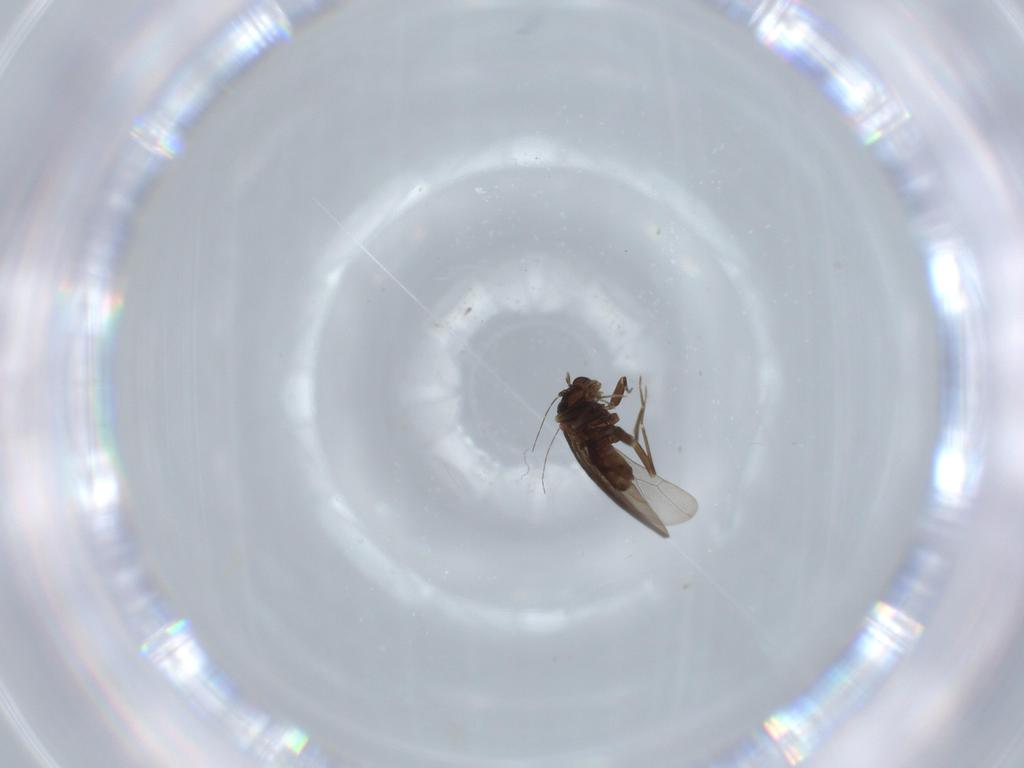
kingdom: Animalia
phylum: Arthropoda
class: Insecta
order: Psocodea
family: Lepidopsocidae
